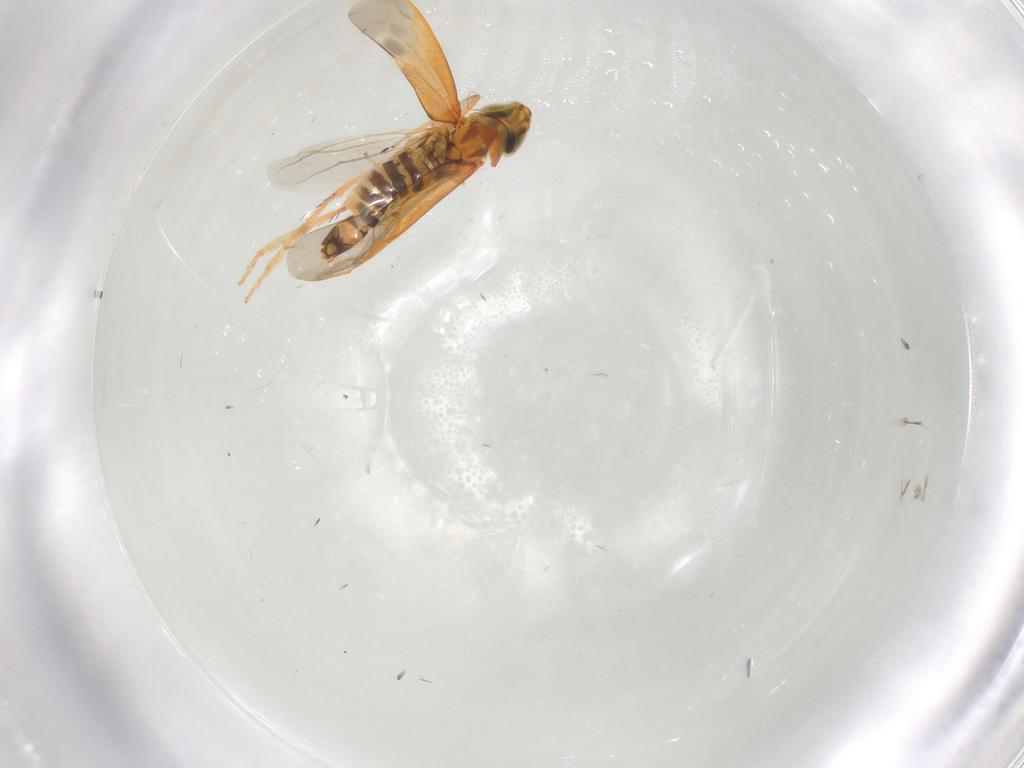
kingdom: Animalia
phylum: Arthropoda
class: Insecta
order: Hemiptera
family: Cicadellidae
